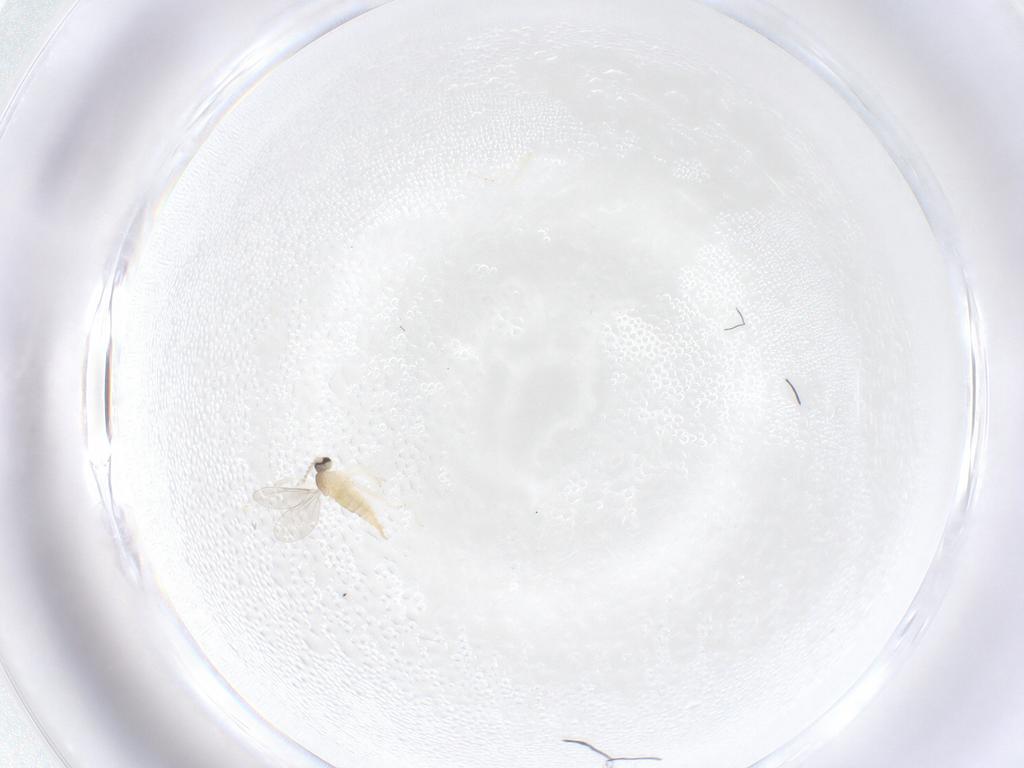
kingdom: Animalia
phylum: Arthropoda
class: Insecta
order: Diptera
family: Cecidomyiidae
